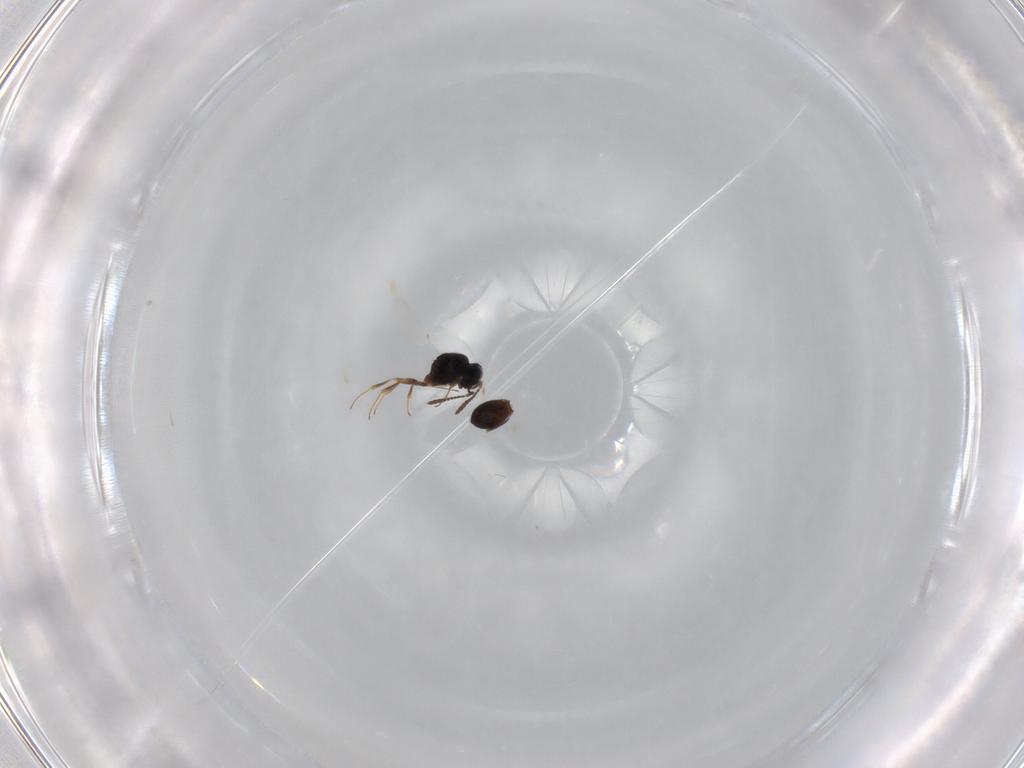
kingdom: Animalia
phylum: Arthropoda
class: Insecta
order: Hymenoptera
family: Scelionidae
